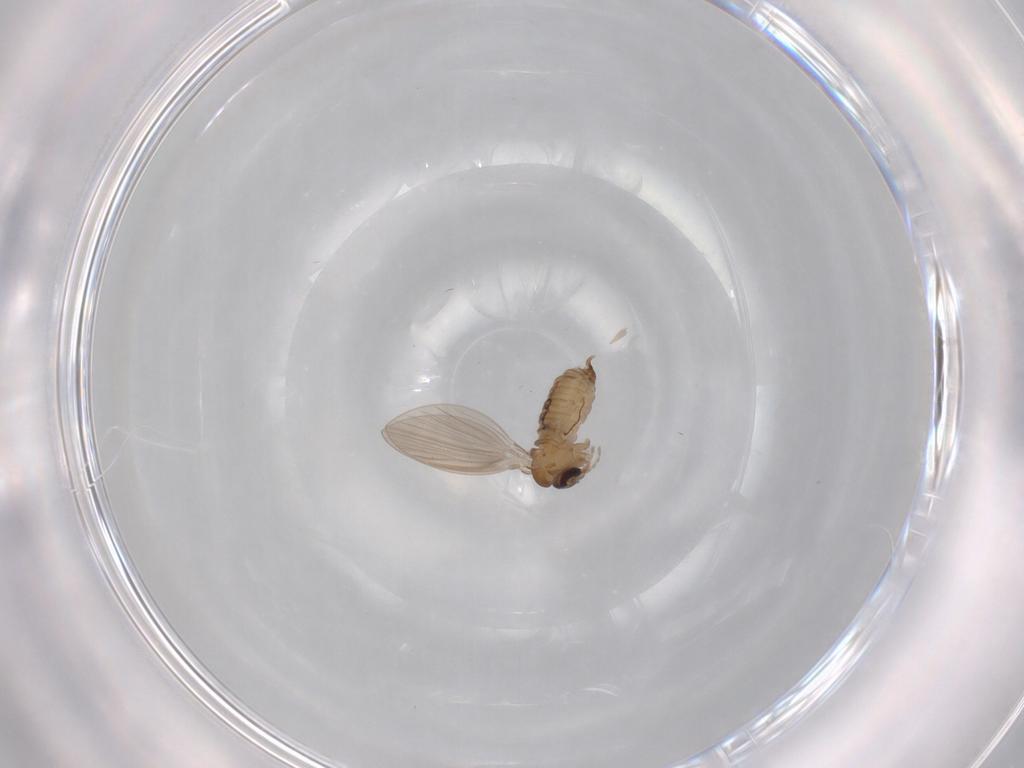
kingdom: Animalia
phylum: Arthropoda
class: Insecta
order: Diptera
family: Psychodidae
